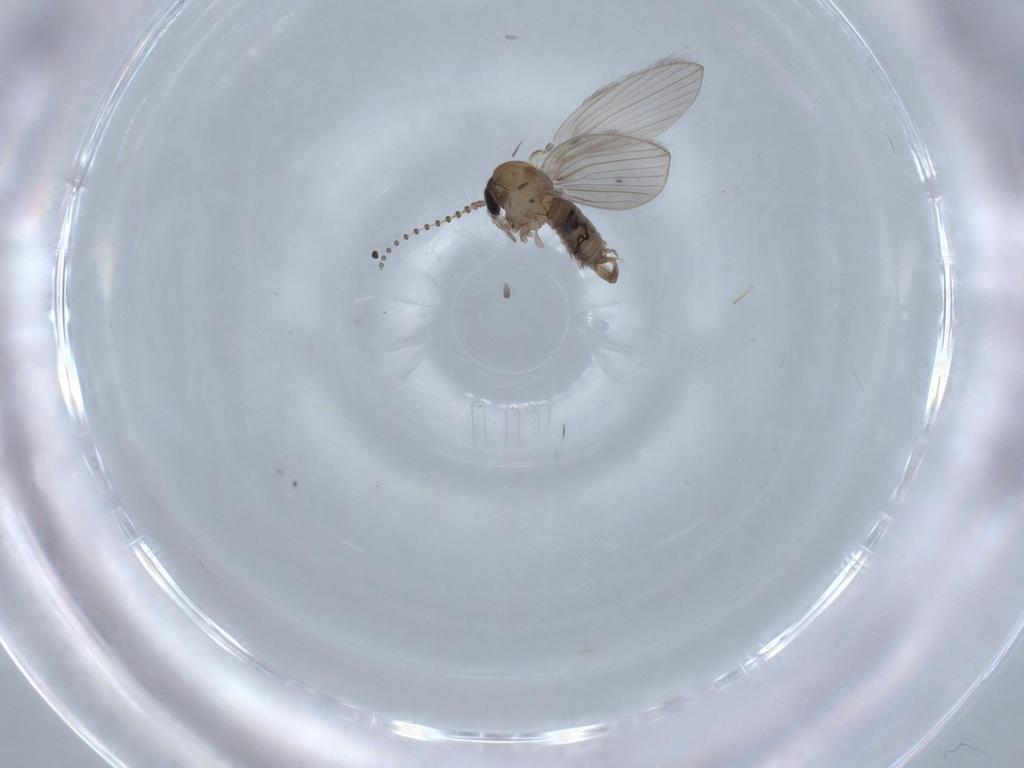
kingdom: Animalia
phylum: Arthropoda
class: Insecta
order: Diptera
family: Psychodidae
